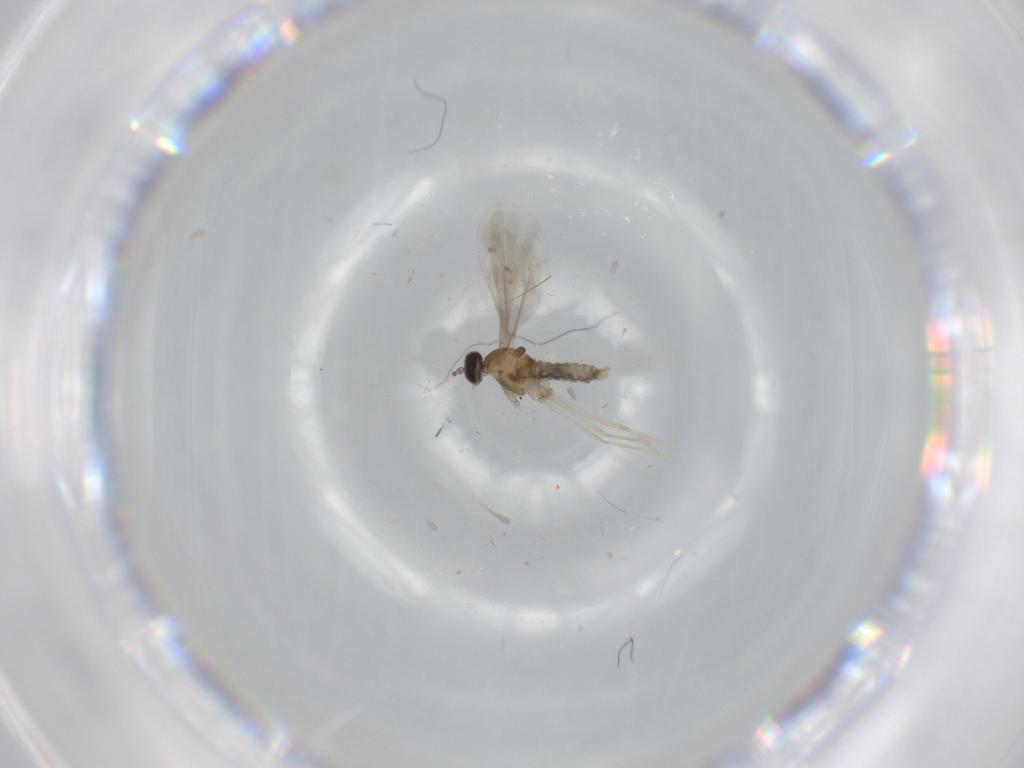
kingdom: Animalia
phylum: Arthropoda
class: Insecta
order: Diptera
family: Cecidomyiidae
